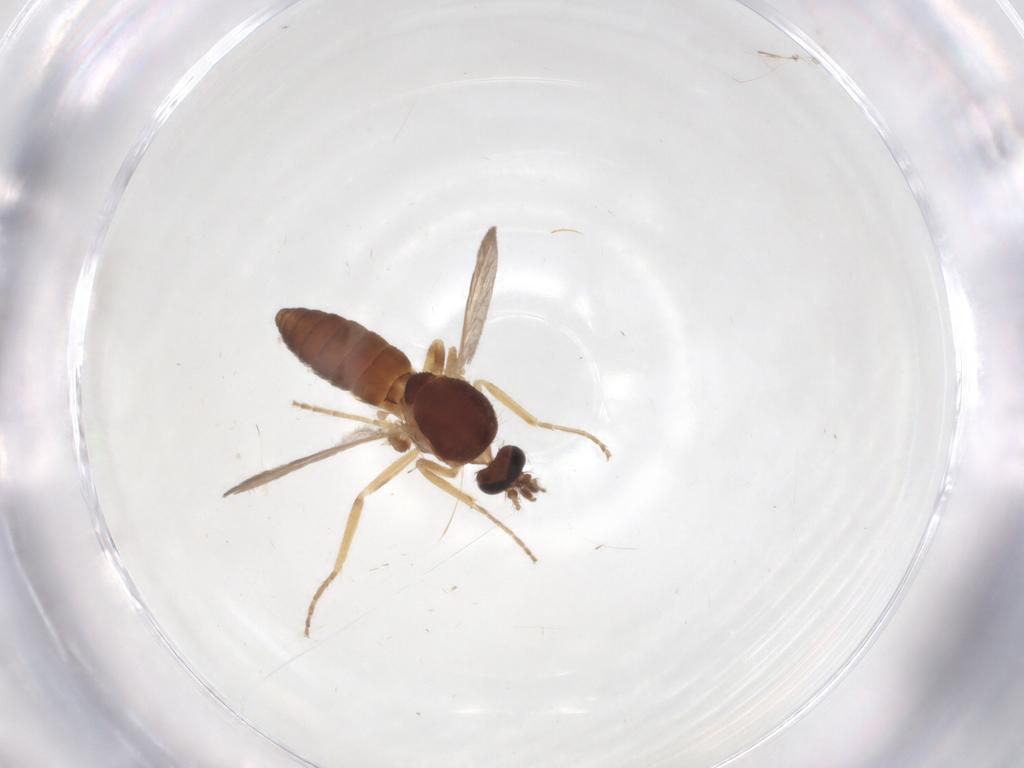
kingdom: Animalia
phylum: Arthropoda
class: Insecta
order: Diptera
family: Ceratopogonidae
